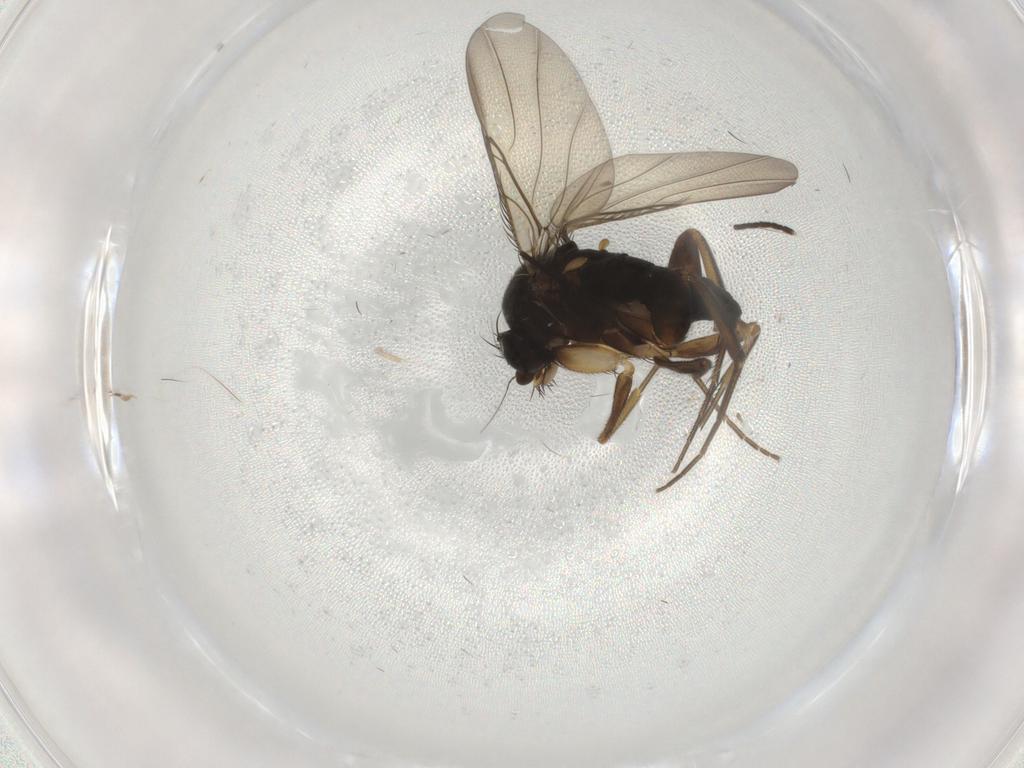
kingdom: Animalia
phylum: Arthropoda
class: Insecta
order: Diptera
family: Phoridae
